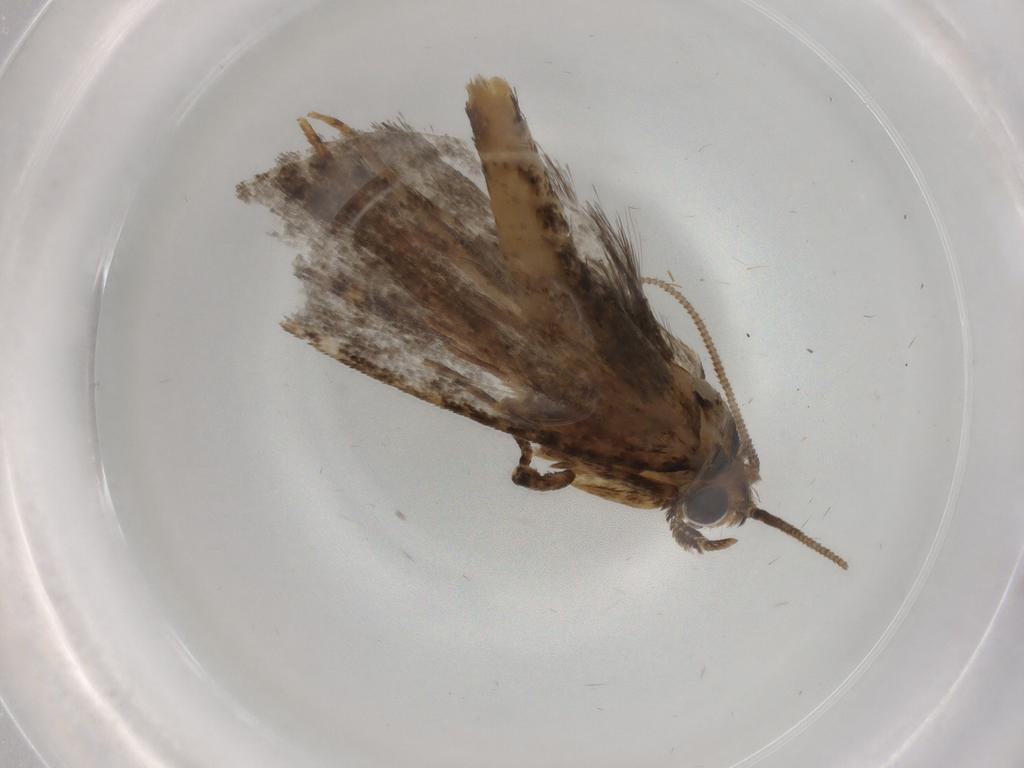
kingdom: Animalia
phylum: Arthropoda
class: Insecta
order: Lepidoptera
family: Tineidae
